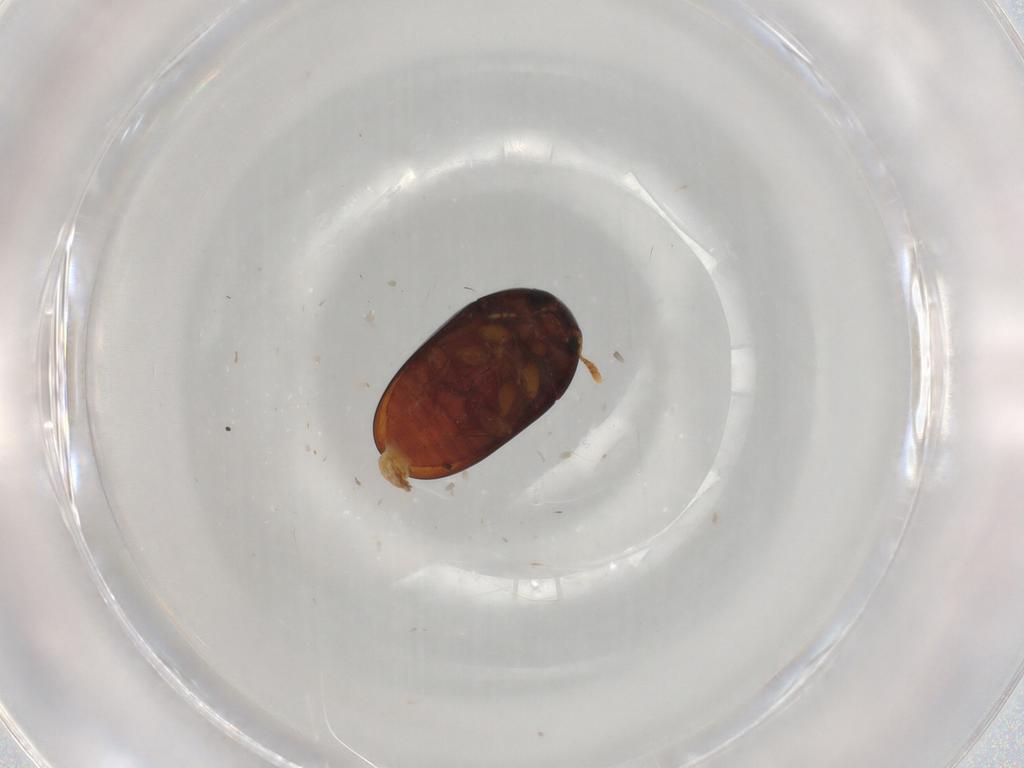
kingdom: Animalia
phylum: Arthropoda
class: Insecta
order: Coleoptera
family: Phalacridae
